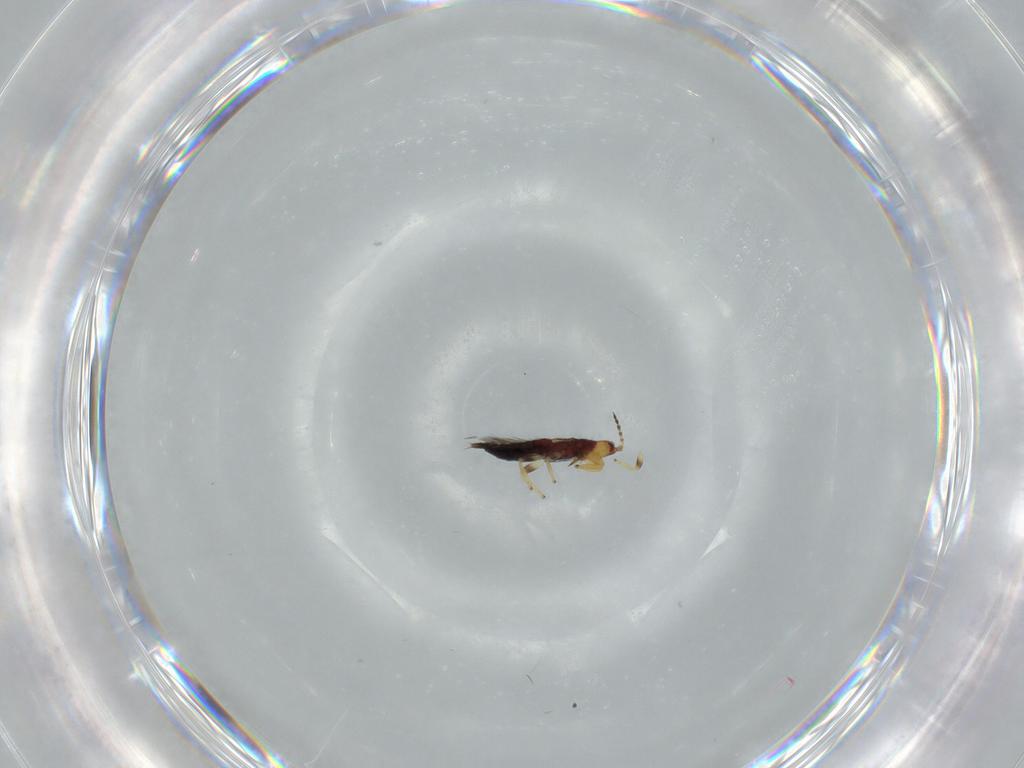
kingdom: Animalia
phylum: Arthropoda
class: Insecta
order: Thysanoptera
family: Phlaeothripidae
